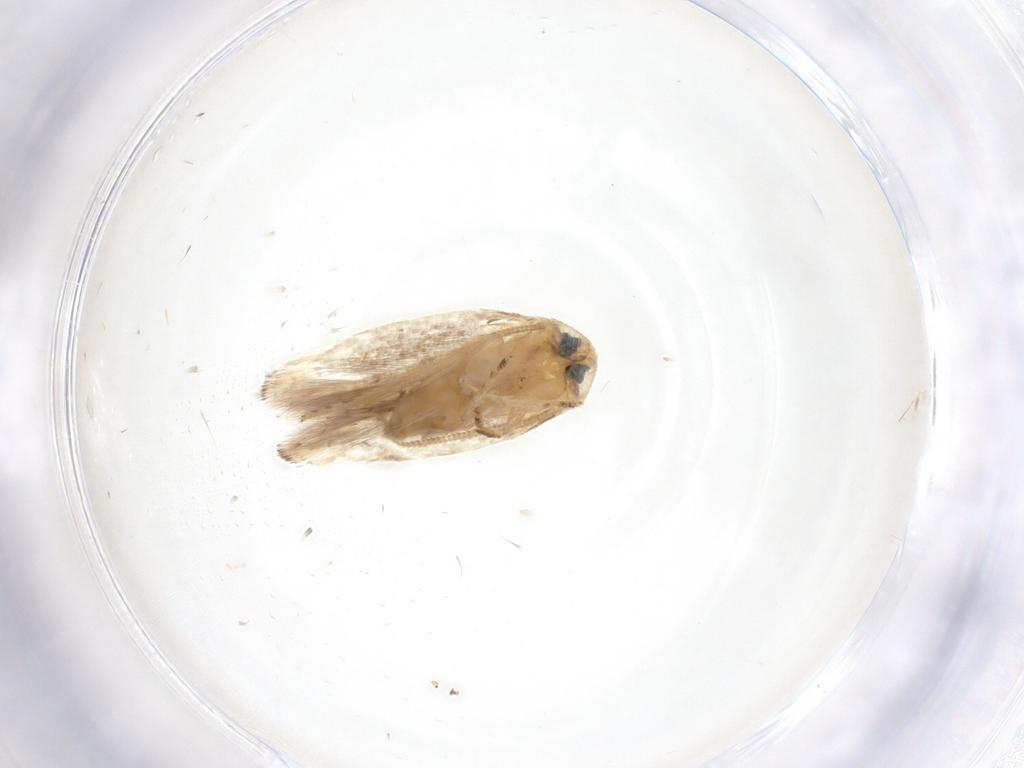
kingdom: Animalia
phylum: Arthropoda
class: Insecta
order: Lepidoptera
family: Opostegidae
